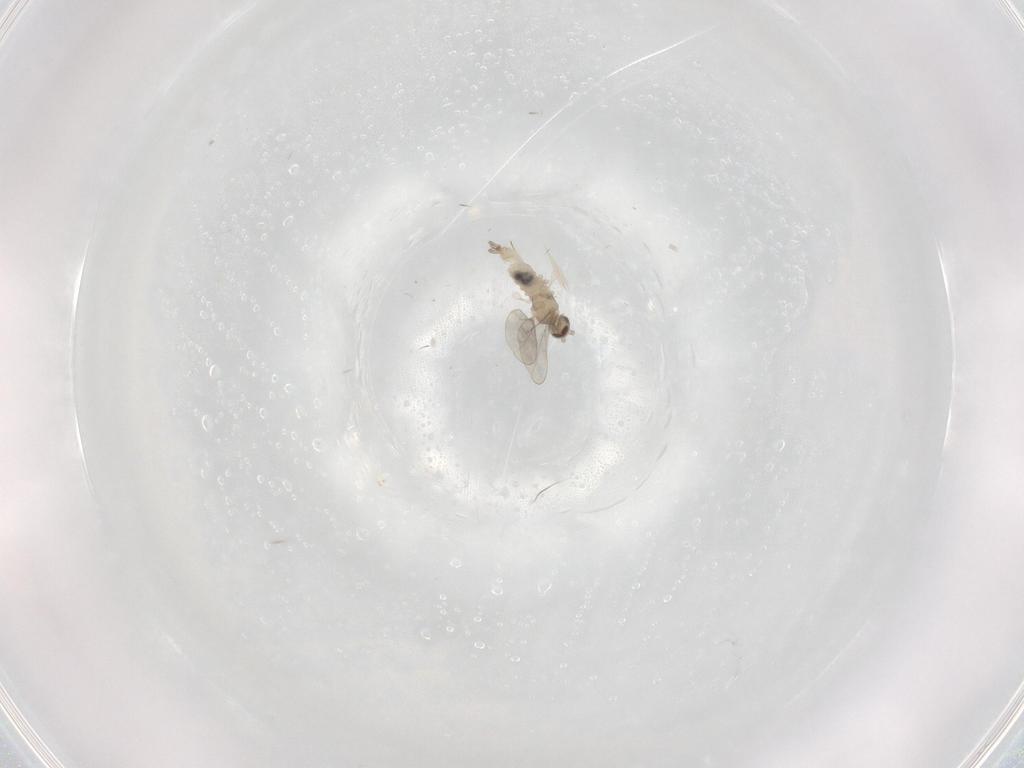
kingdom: Animalia
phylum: Arthropoda
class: Insecta
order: Diptera
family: Cecidomyiidae
